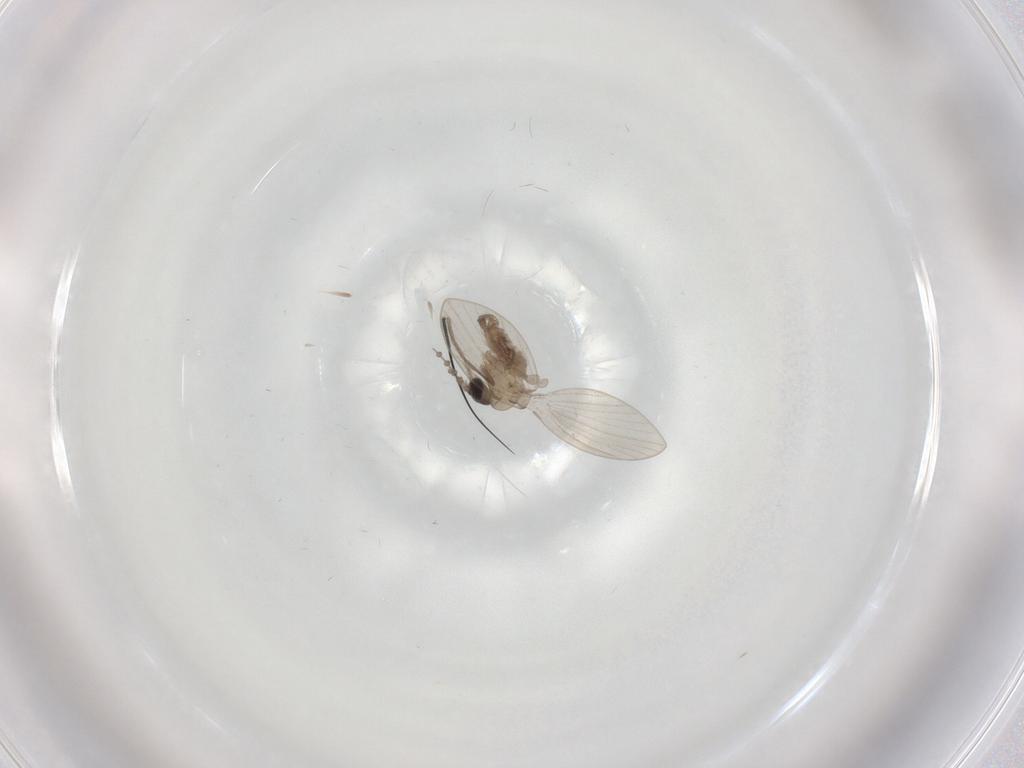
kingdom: Animalia
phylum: Arthropoda
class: Insecta
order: Diptera
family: Psychodidae
